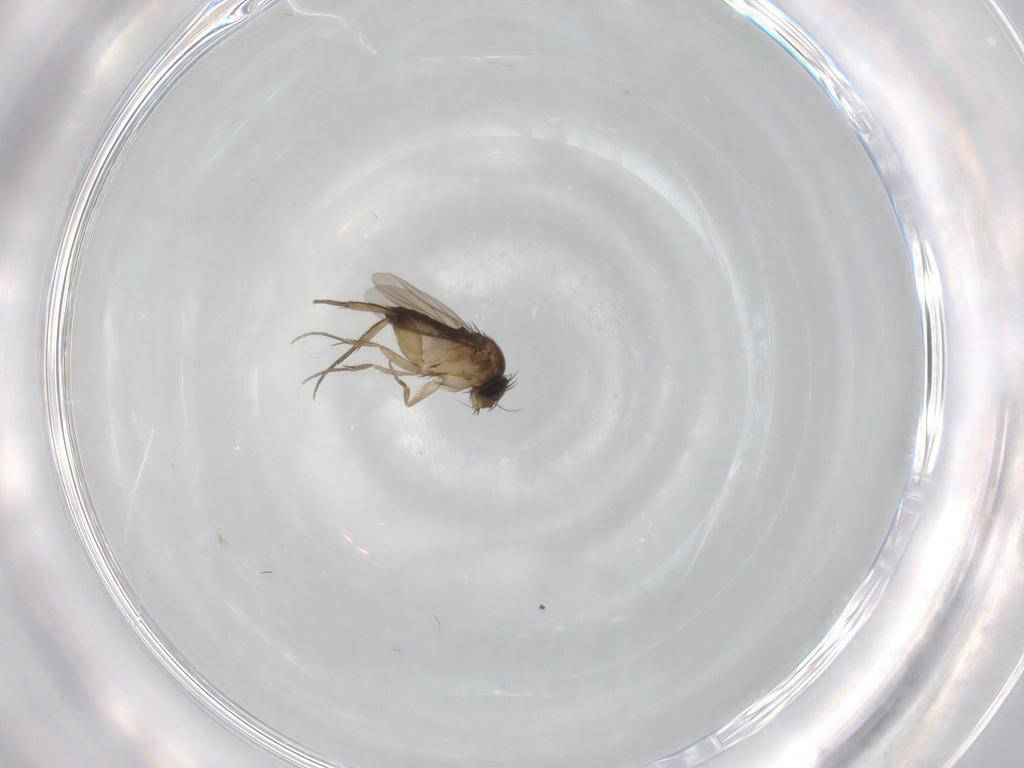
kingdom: Animalia
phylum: Arthropoda
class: Insecta
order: Diptera
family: Phoridae
